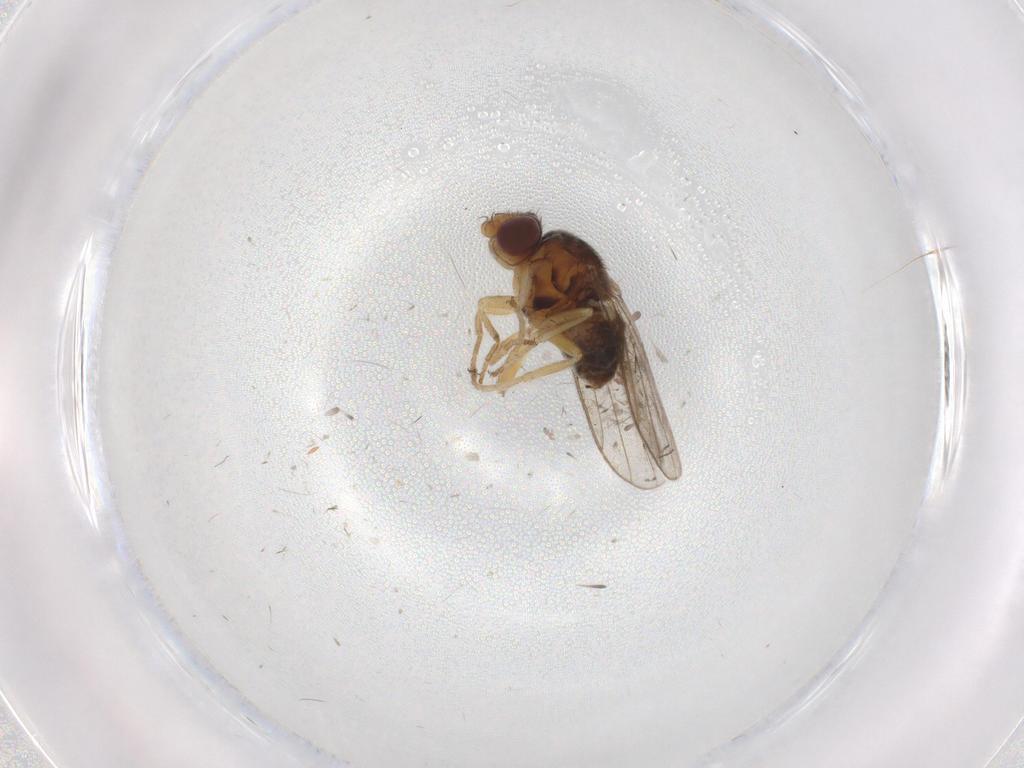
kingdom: Animalia
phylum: Arthropoda
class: Insecta
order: Diptera
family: Chloropidae
